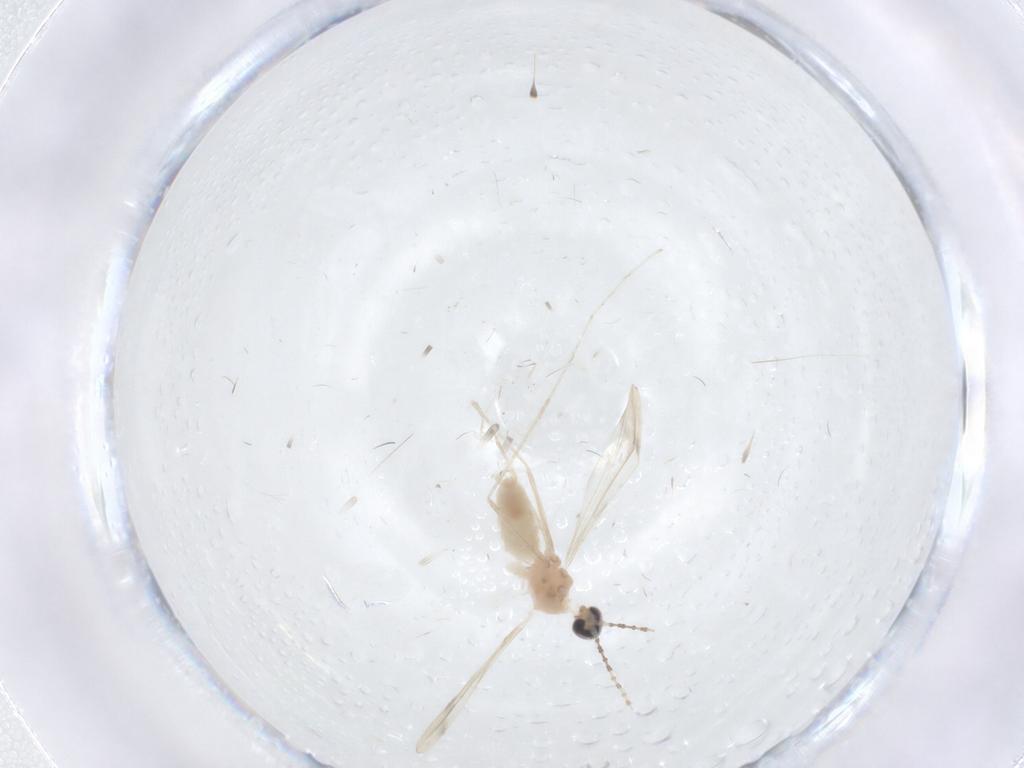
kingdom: Animalia
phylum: Arthropoda
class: Insecta
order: Diptera
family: Cecidomyiidae
